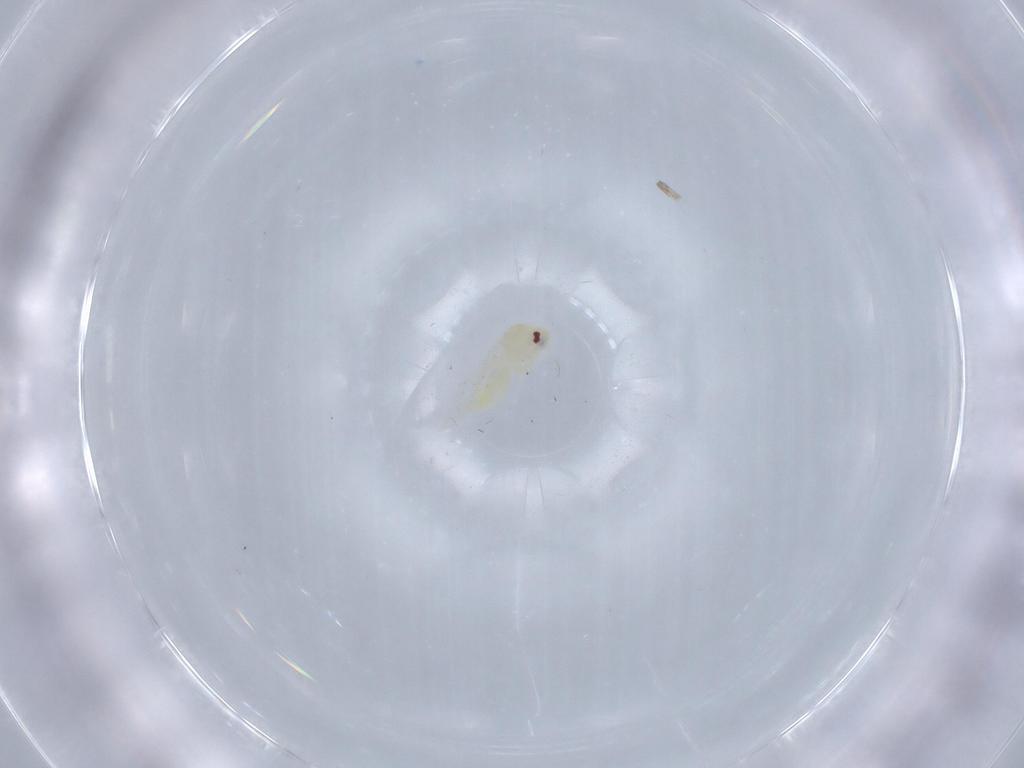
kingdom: Animalia
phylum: Arthropoda
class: Insecta
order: Hemiptera
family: Aleyrodidae
